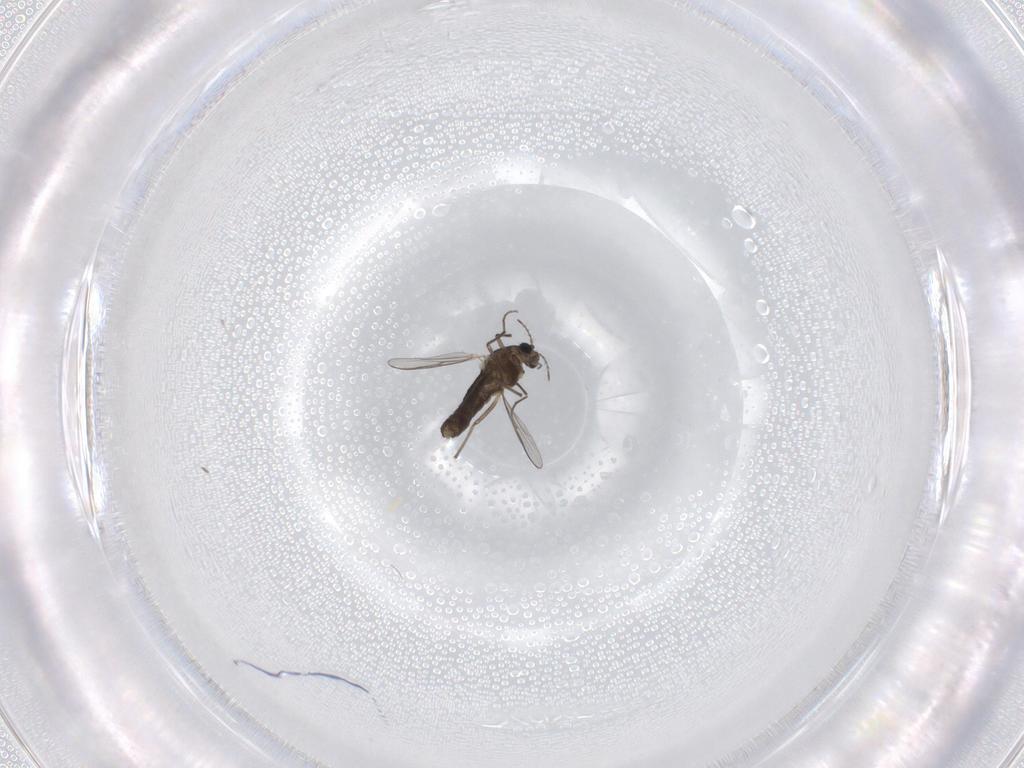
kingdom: Animalia
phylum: Arthropoda
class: Insecta
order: Diptera
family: Chironomidae
